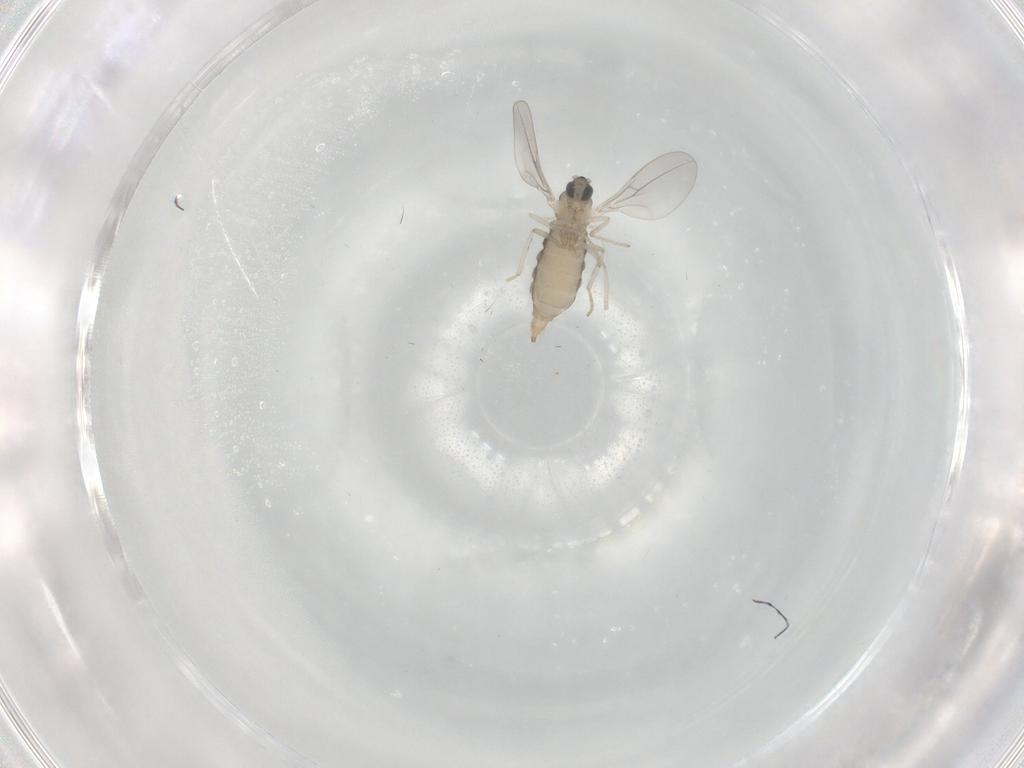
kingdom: Animalia
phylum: Arthropoda
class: Insecta
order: Diptera
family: Cecidomyiidae
